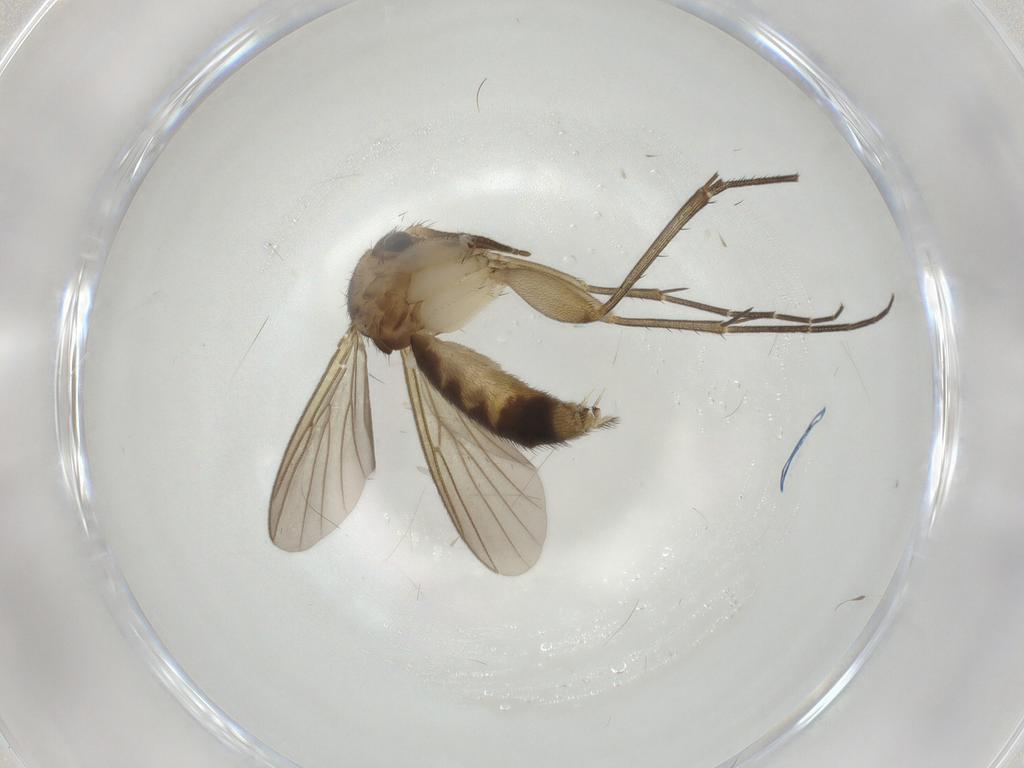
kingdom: Animalia
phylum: Arthropoda
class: Insecta
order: Diptera
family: Mycetophilidae
